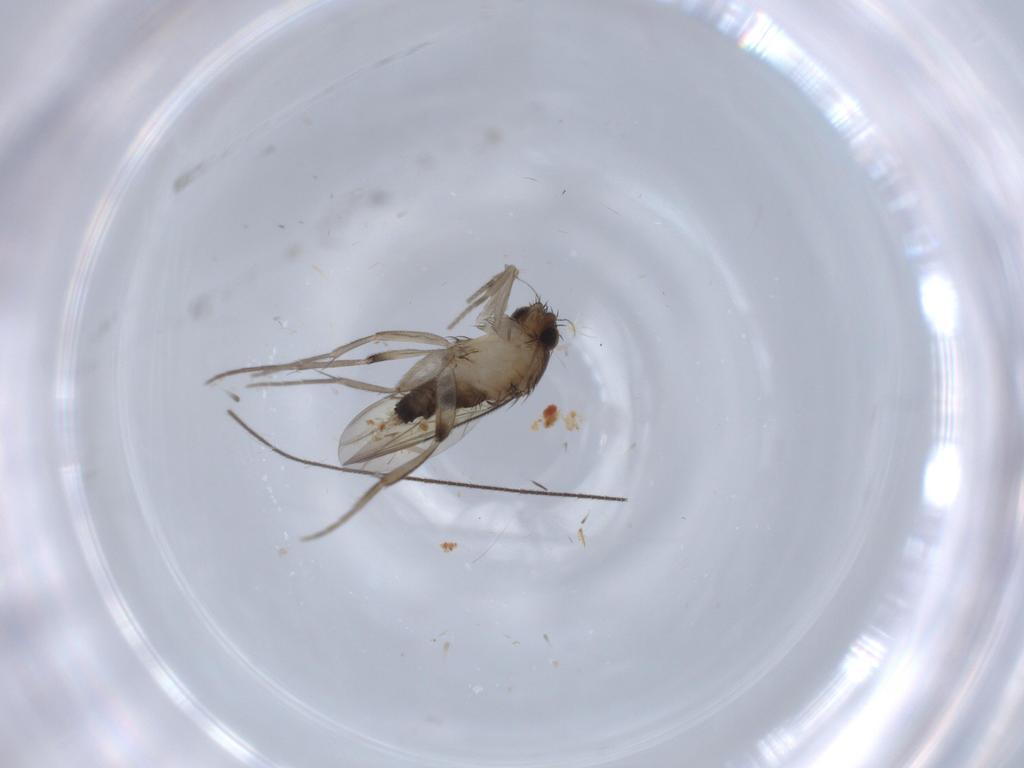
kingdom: Animalia
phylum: Arthropoda
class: Insecta
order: Diptera
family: Phoridae
